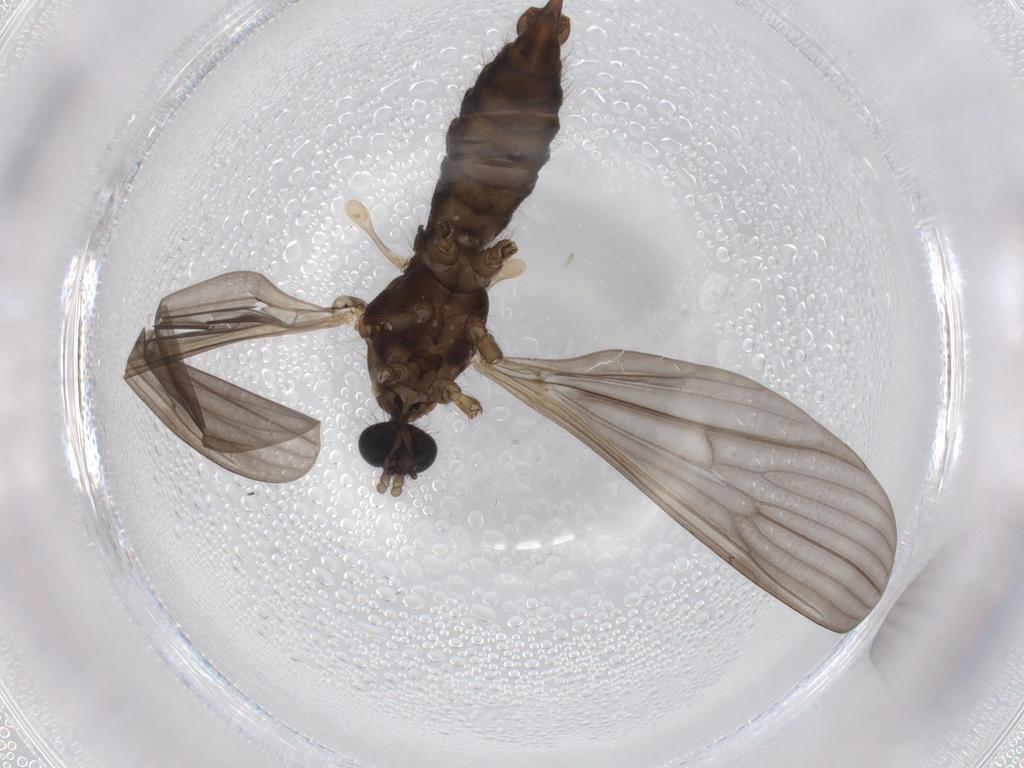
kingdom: Animalia
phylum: Arthropoda
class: Insecta
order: Diptera
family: Limoniidae
